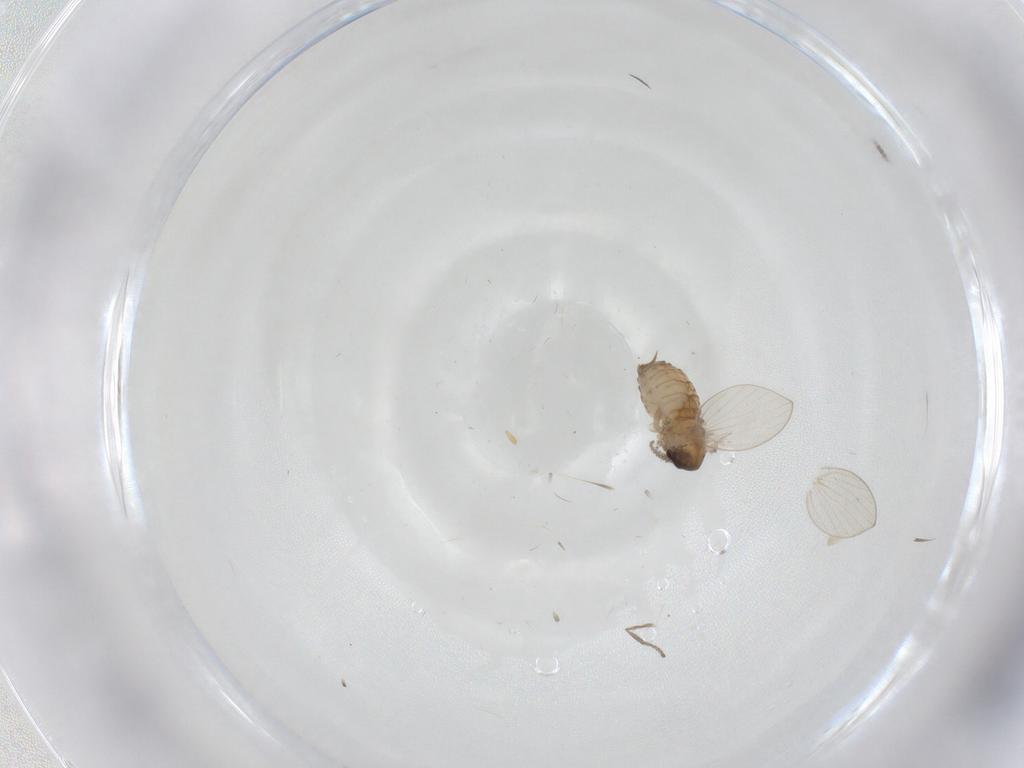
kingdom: Animalia
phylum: Arthropoda
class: Insecta
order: Diptera
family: Psychodidae
